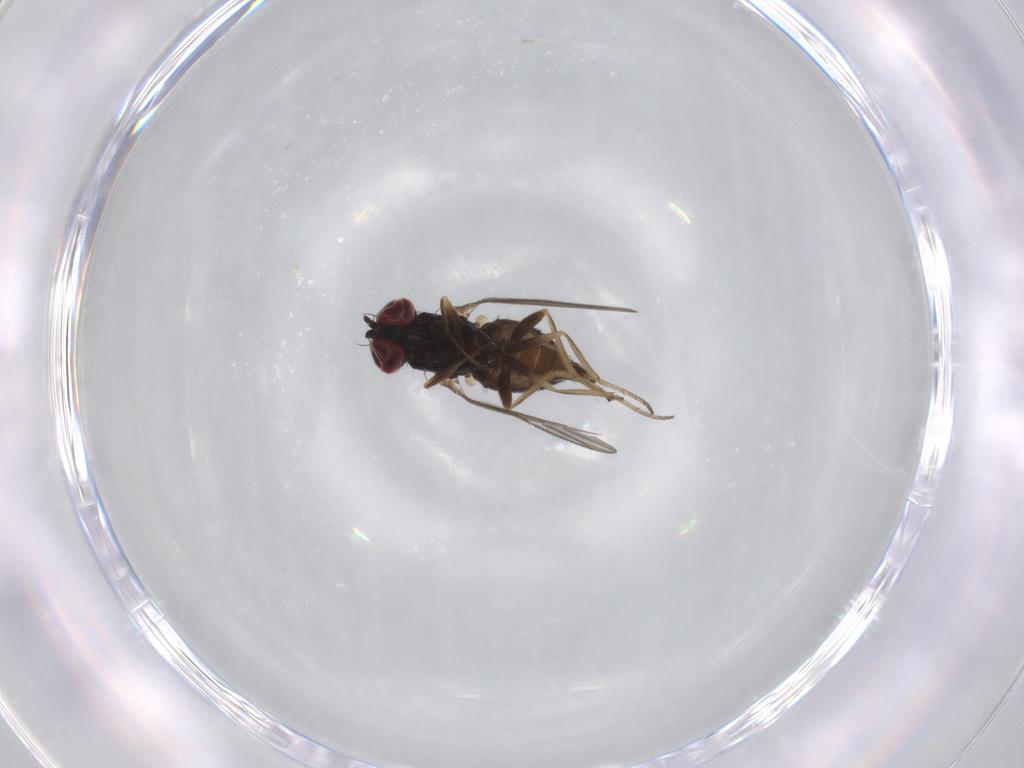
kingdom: Animalia
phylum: Arthropoda
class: Insecta
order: Diptera
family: Dolichopodidae
